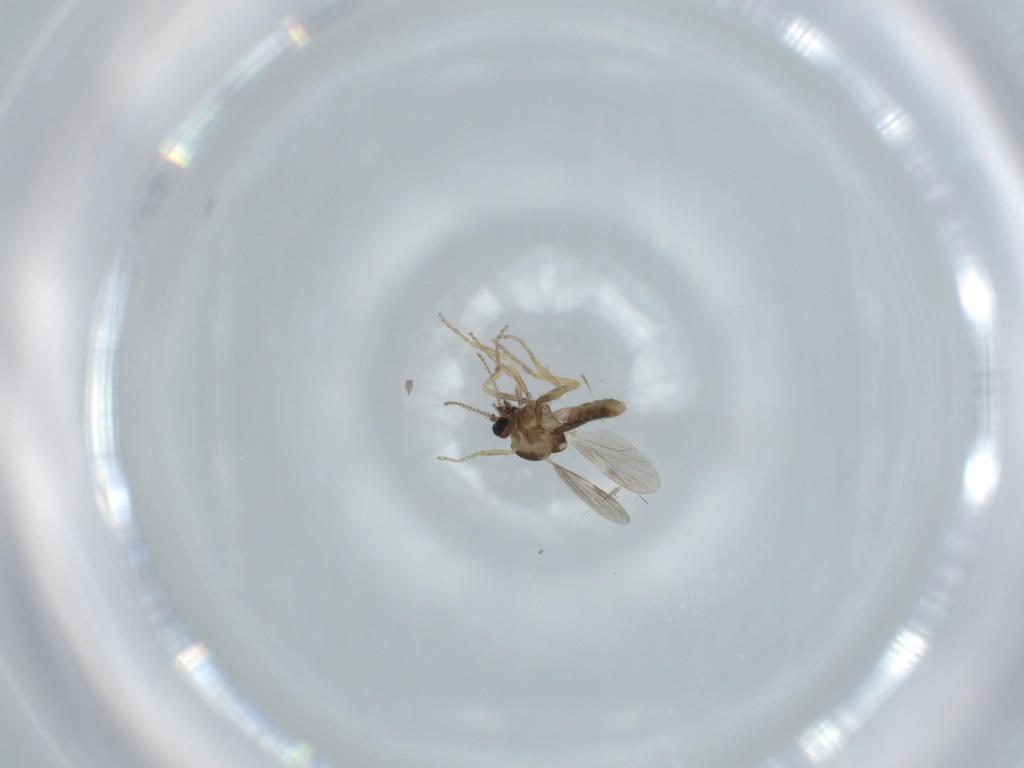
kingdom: Animalia
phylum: Arthropoda
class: Insecta
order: Diptera
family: Cecidomyiidae
